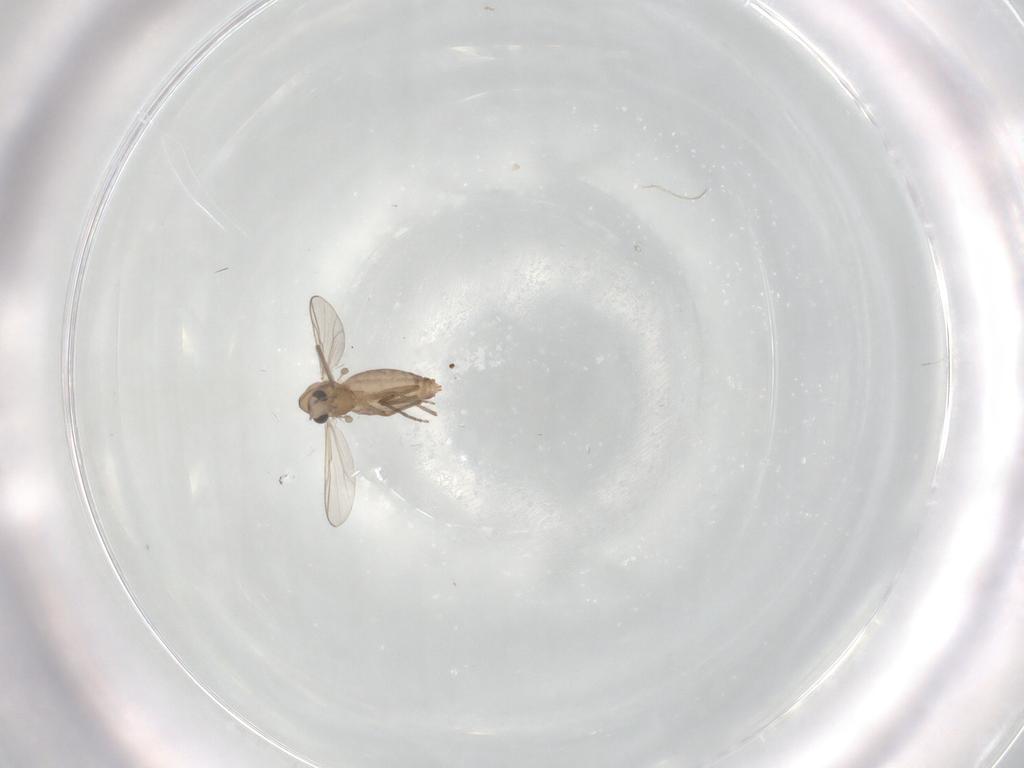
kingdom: Animalia
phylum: Arthropoda
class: Insecta
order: Diptera
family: Chironomidae
